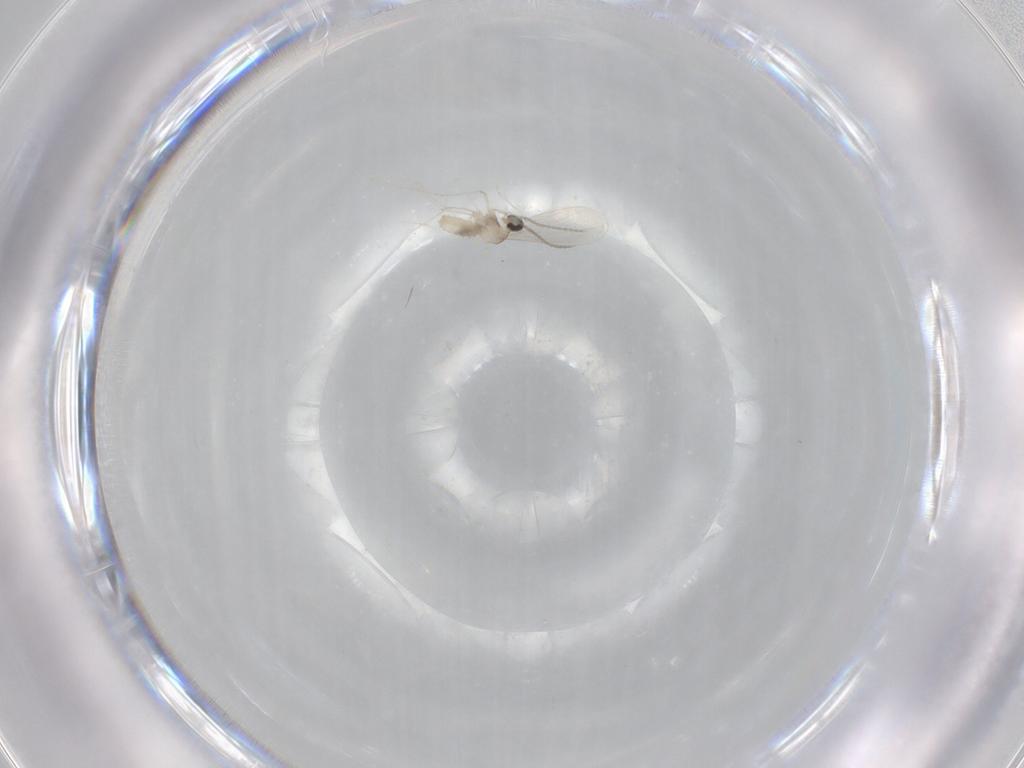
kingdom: Animalia
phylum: Arthropoda
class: Insecta
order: Diptera
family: Cecidomyiidae
